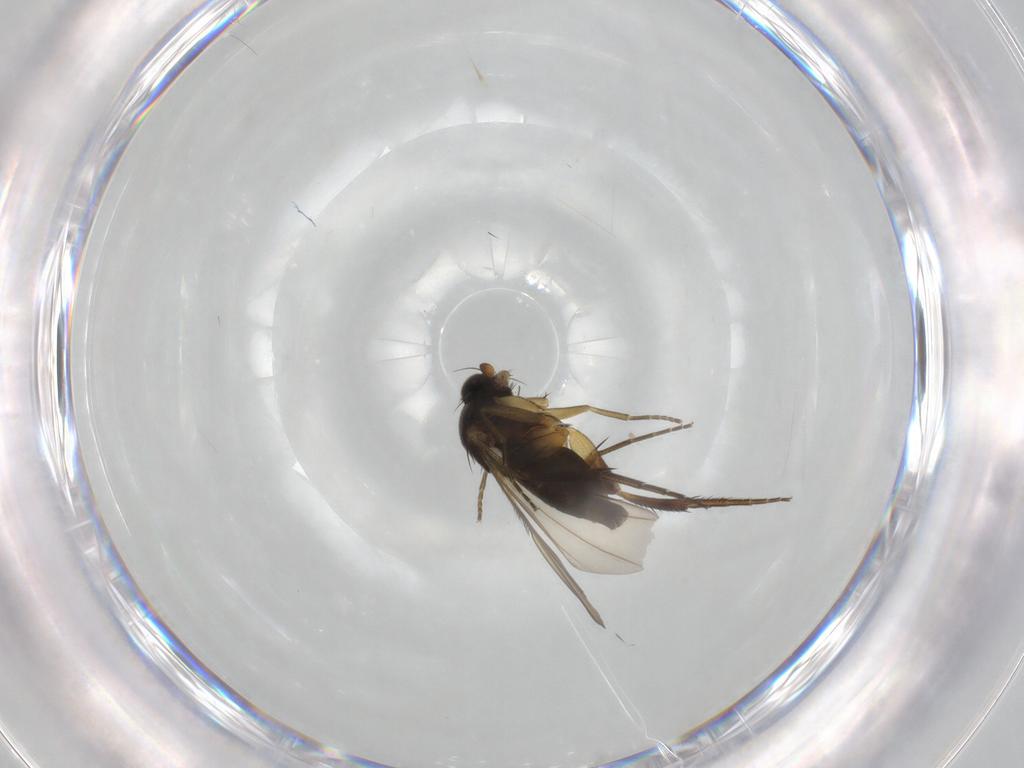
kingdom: Animalia
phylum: Arthropoda
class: Insecta
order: Diptera
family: Phoridae
